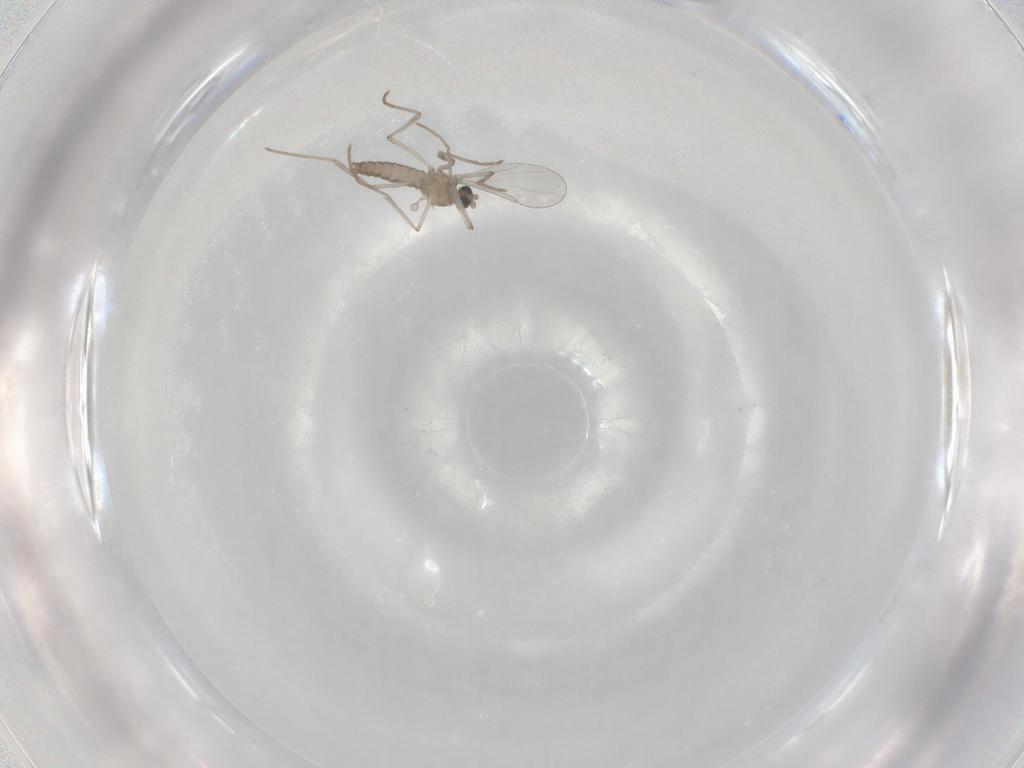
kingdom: Animalia
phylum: Arthropoda
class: Insecta
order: Diptera
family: Cecidomyiidae
